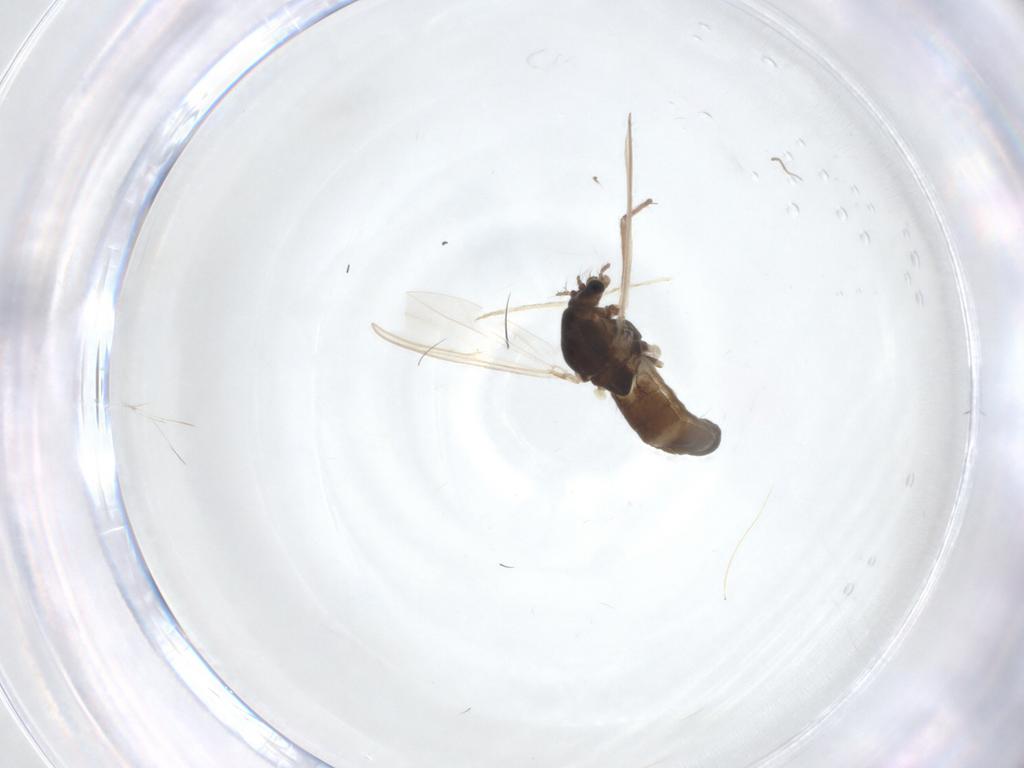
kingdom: Animalia
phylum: Arthropoda
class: Insecta
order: Diptera
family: Chironomidae
